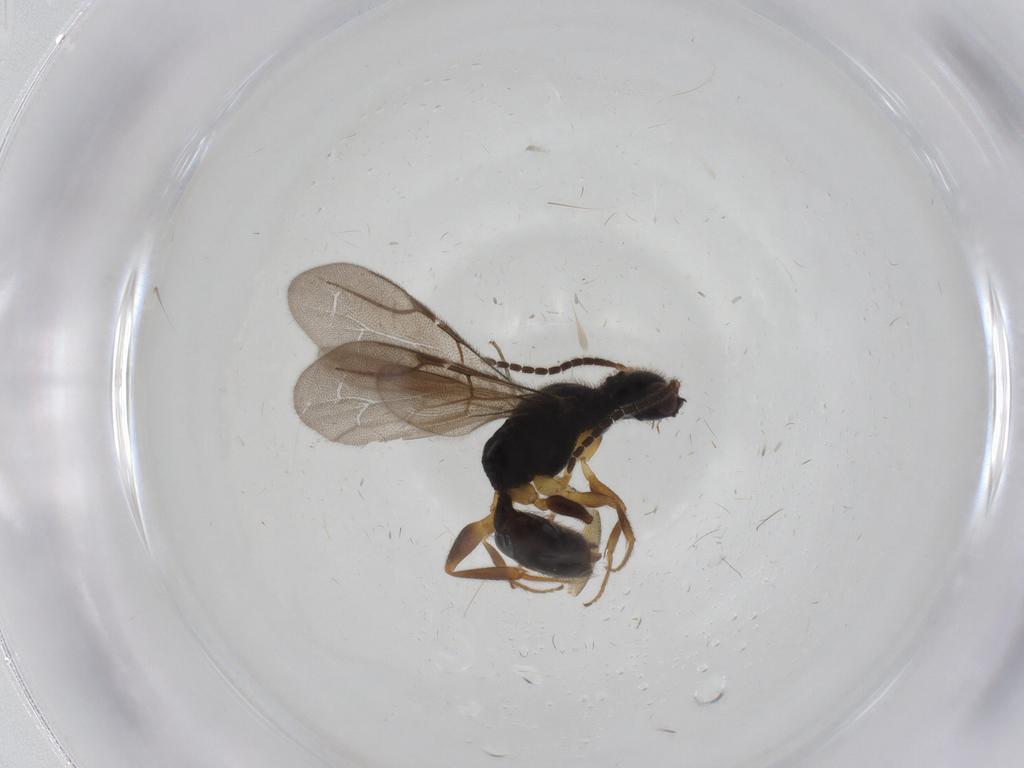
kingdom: Animalia
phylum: Arthropoda
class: Insecta
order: Hymenoptera
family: Bethylidae
